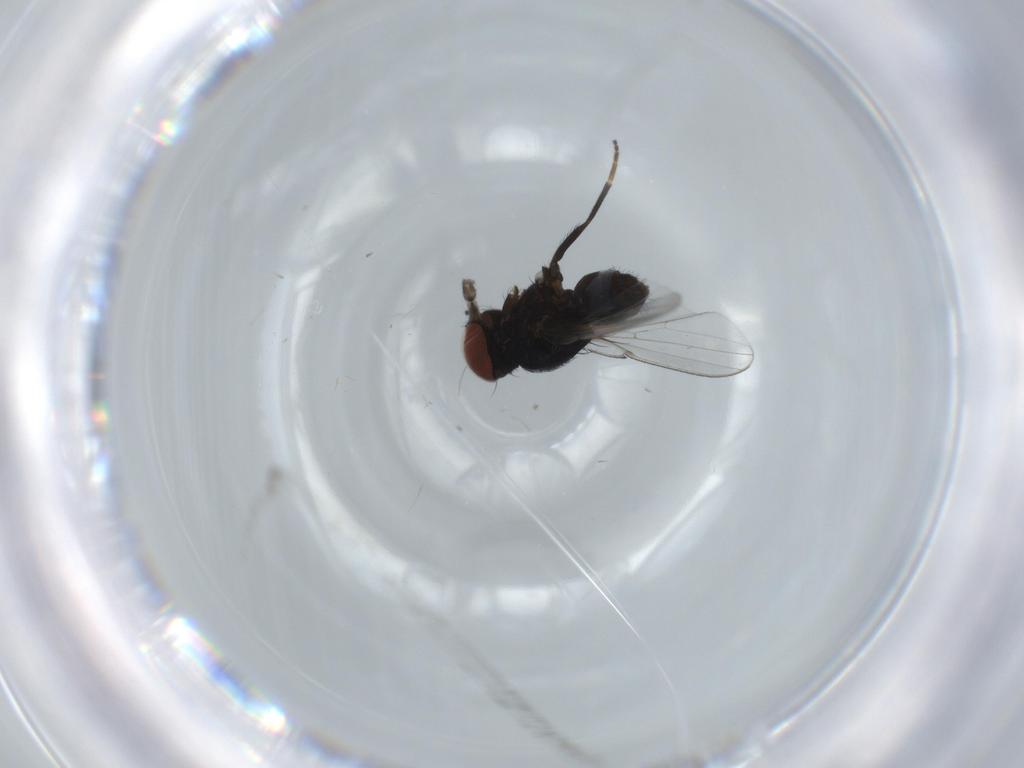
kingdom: Animalia
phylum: Arthropoda
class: Insecta
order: Diptera
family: Milichiidae
